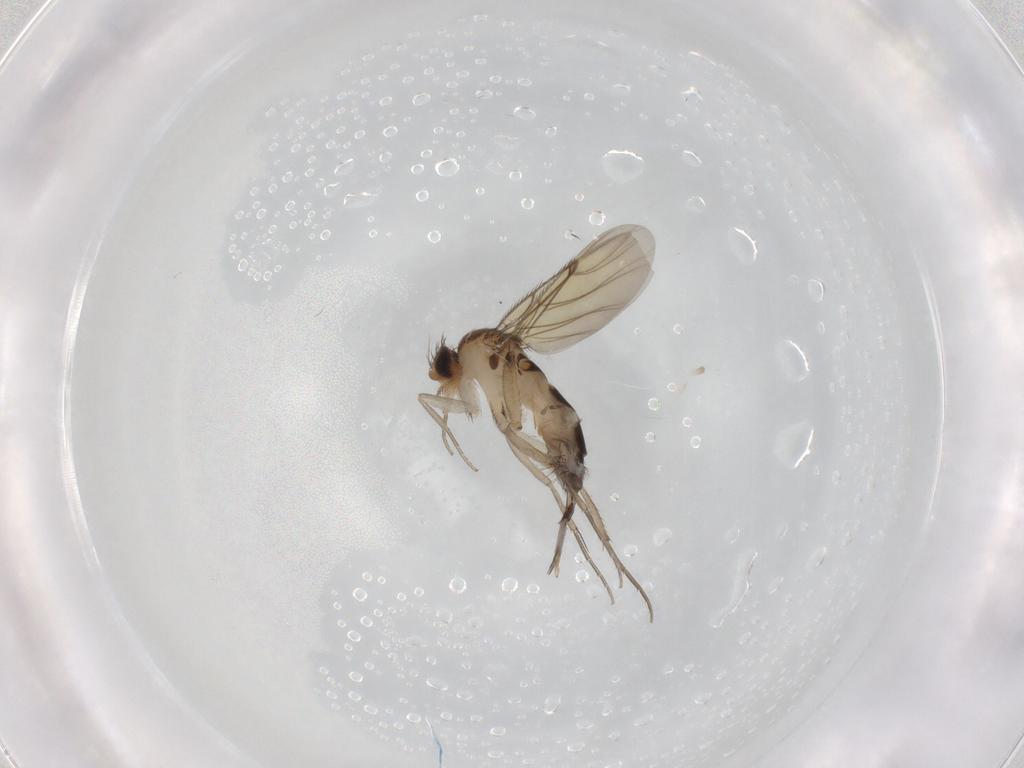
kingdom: Animalia
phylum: Arthropoda
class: Insecta
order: Diptera
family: Phoridae
